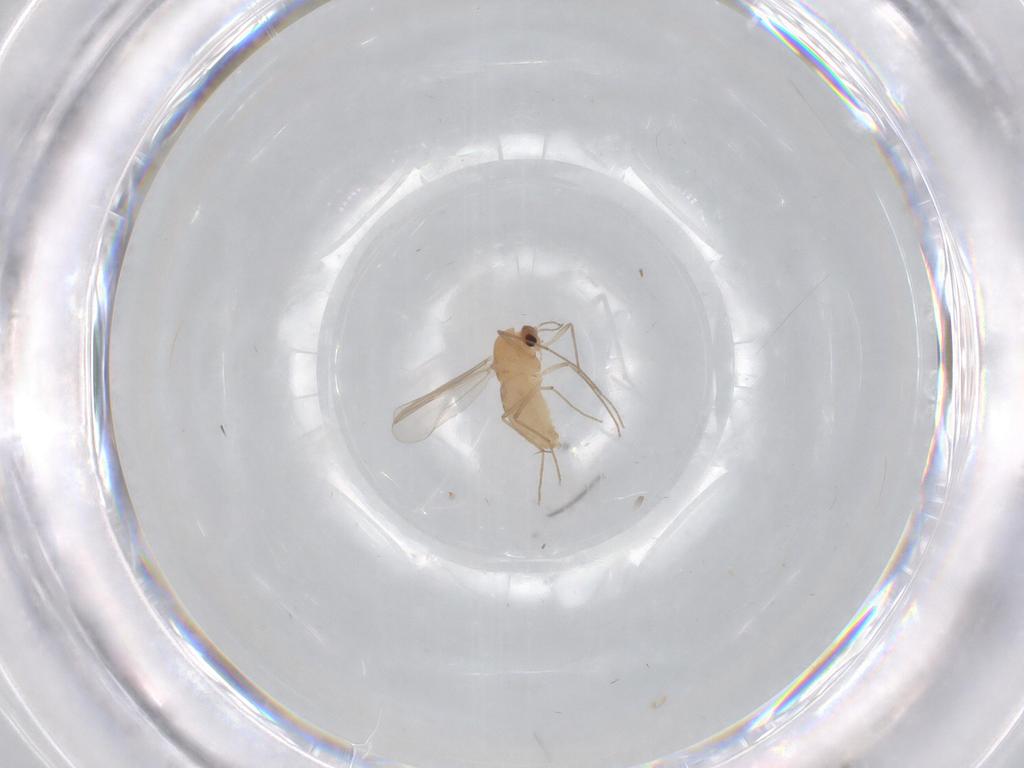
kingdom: Animalia
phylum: Arthropoda
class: Insecta
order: Diptera
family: Chironomidae
